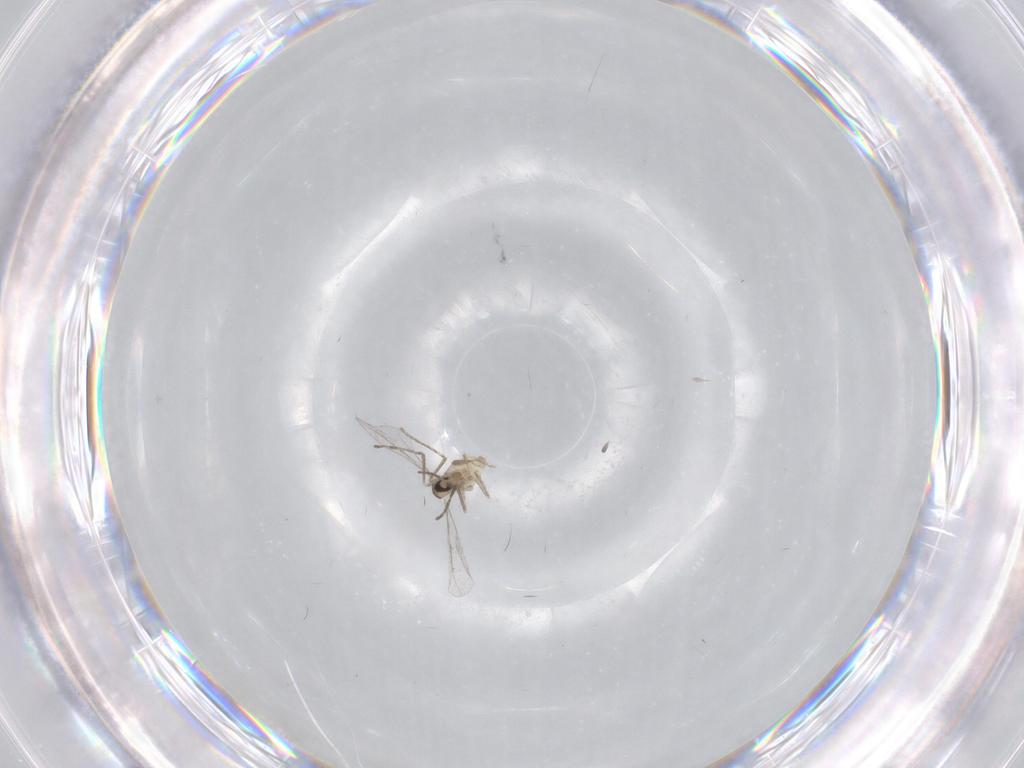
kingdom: Animalia
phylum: Arthropoda
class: Insecta
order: Diptera
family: Cecidomyiidae
